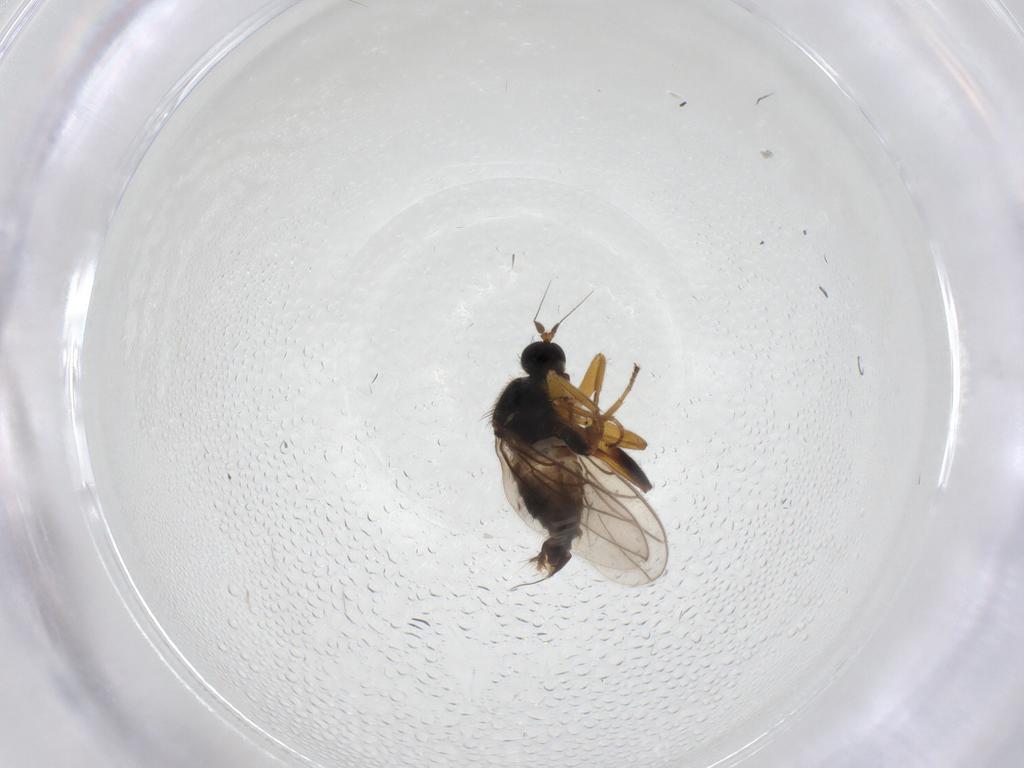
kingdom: Animalia
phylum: Arthropoda
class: Insecta
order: Diptera
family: Hybotidae
